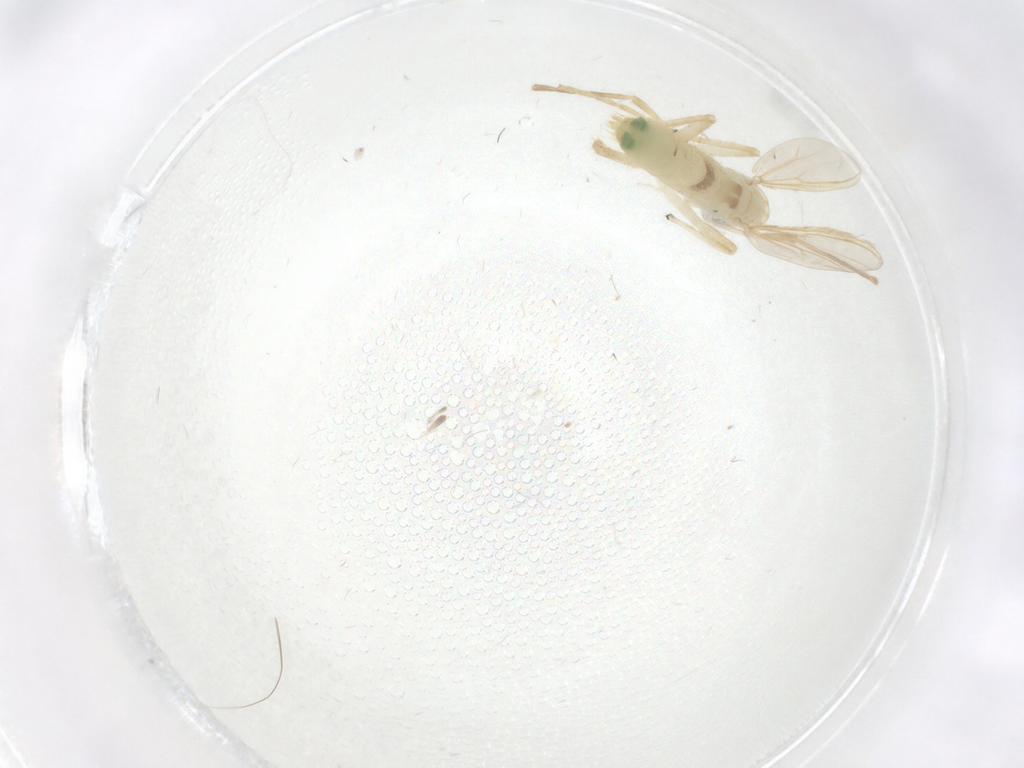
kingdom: Animalia
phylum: Arthropoda
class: Insecta
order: Diptera
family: Chironomidae
